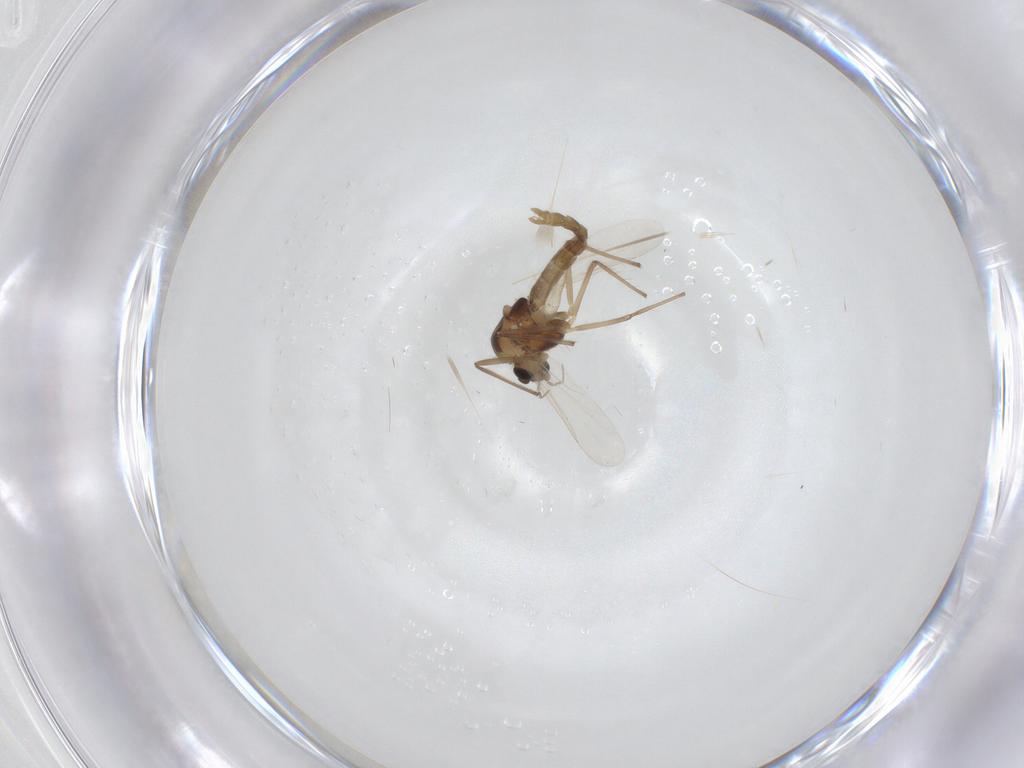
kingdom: Animalia
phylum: Arthropoda
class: Insecta
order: Diptera
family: Chironomidae
